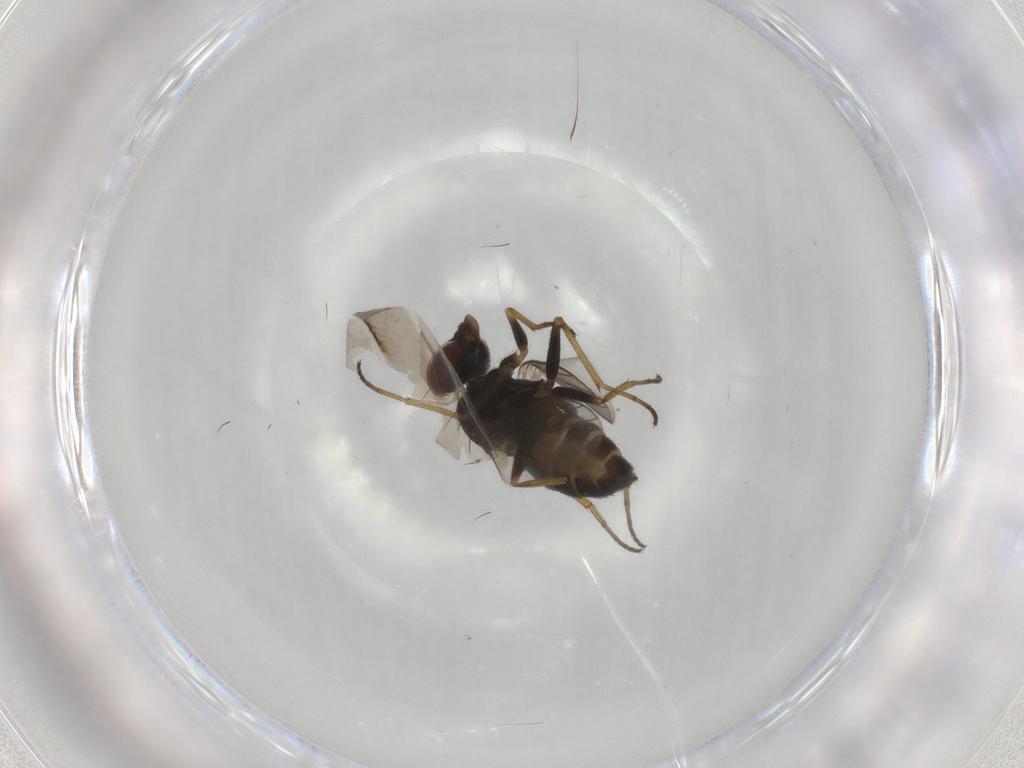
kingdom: Animalia
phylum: Arthropoda
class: Insecta
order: Diptera
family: Dolichopodidae
